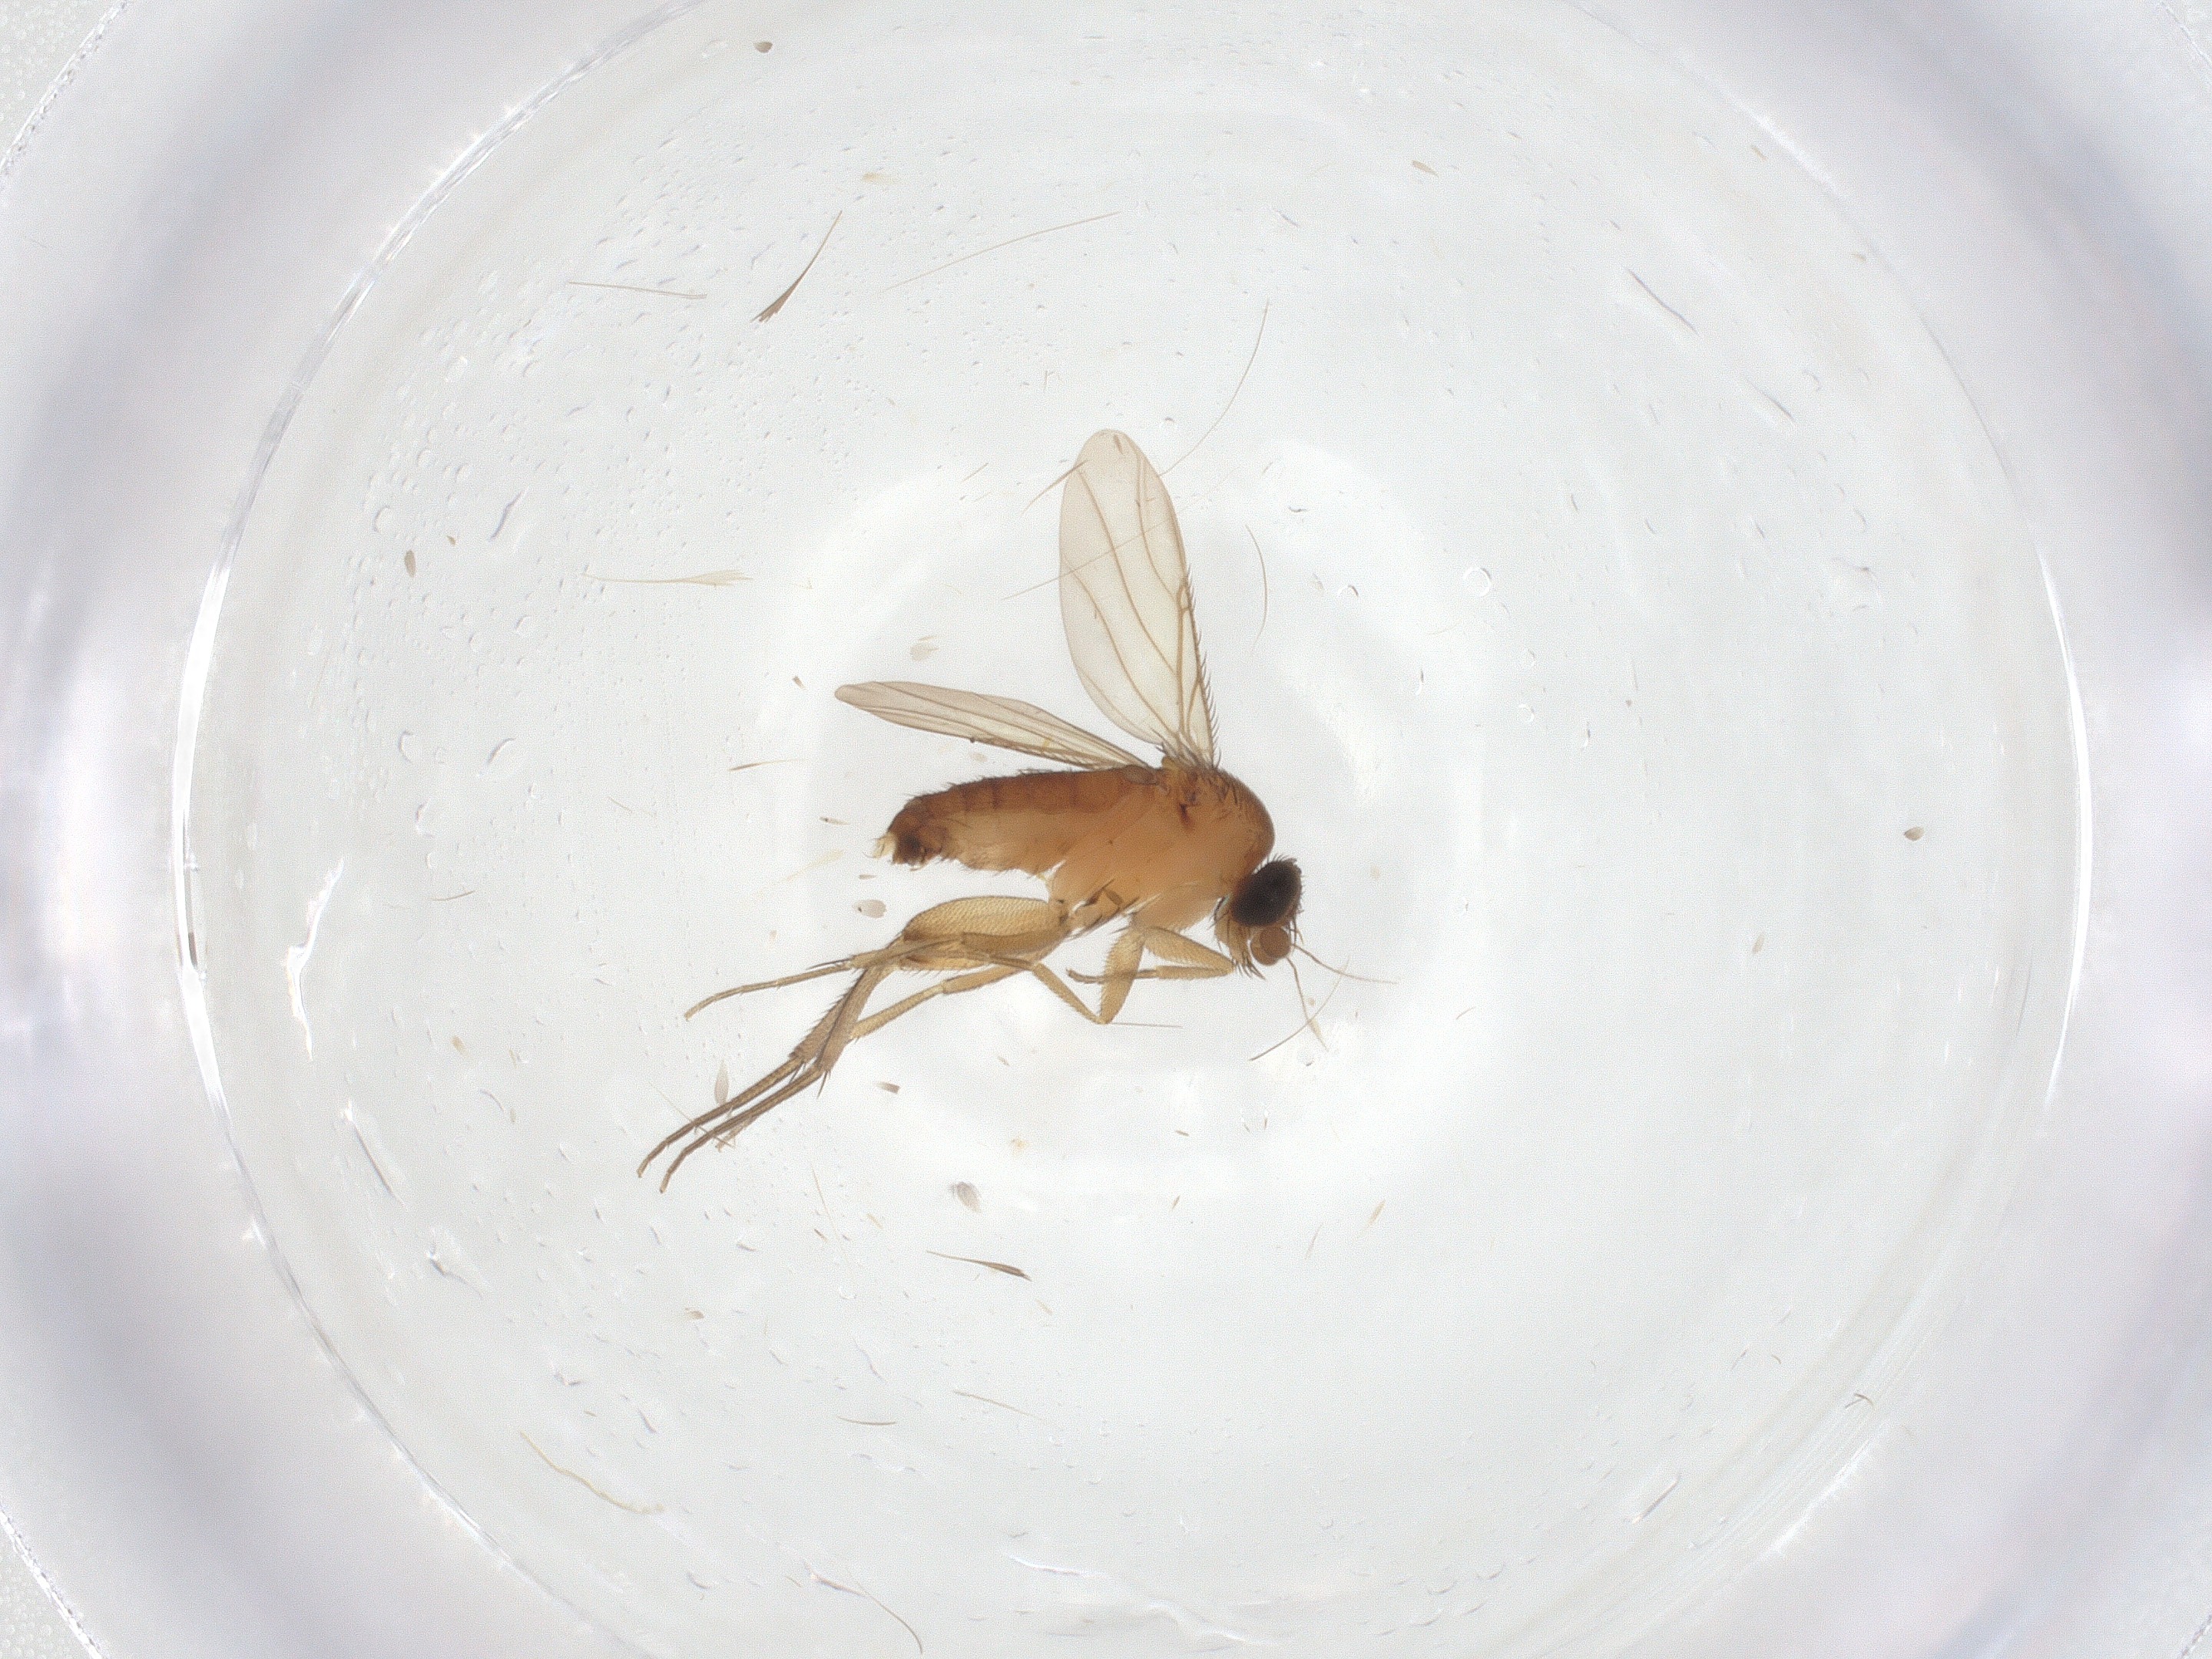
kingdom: Animalia
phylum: Arthropoda
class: Insecta
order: Diptera
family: Phoridae
